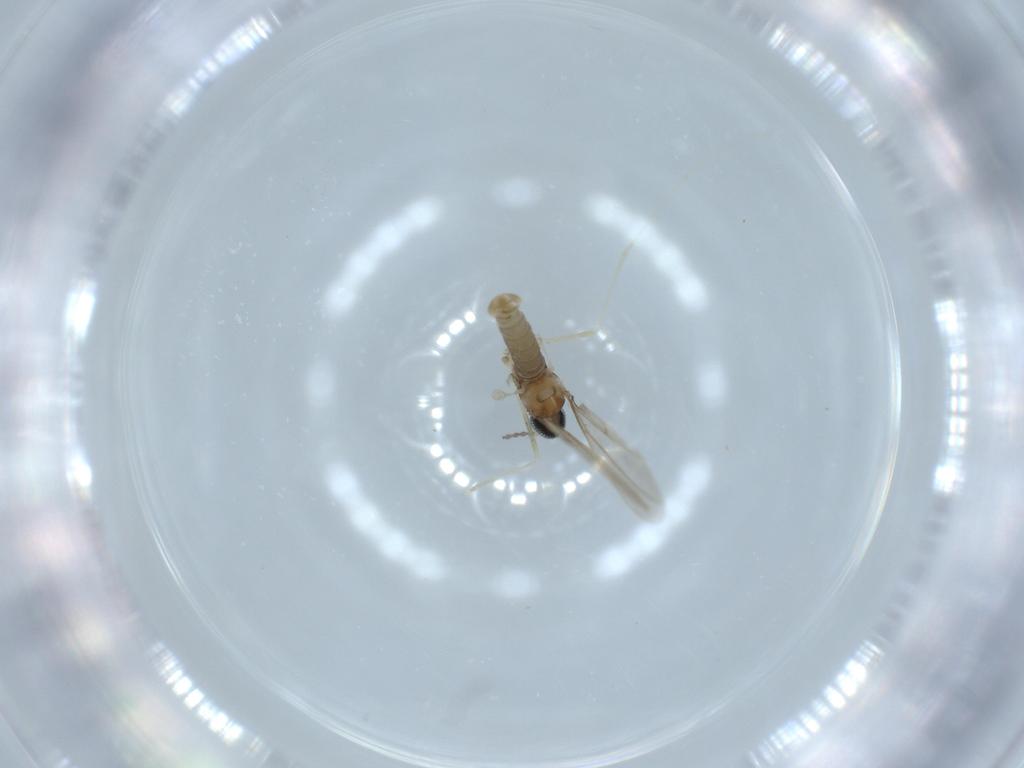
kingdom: Animalia
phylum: Arthropoda
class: Insecta
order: Diptera
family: Cecidomyiidae
